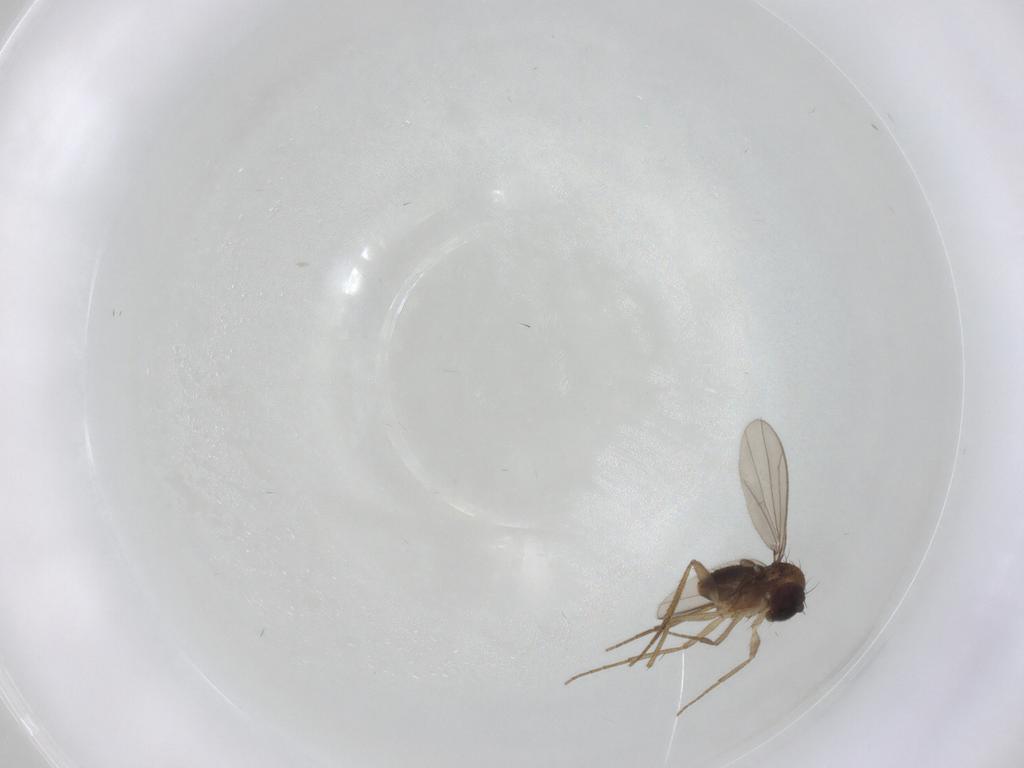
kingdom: Animalia
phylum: Arthropoda
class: Insecta
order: Diptera
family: Dolichopodidae
